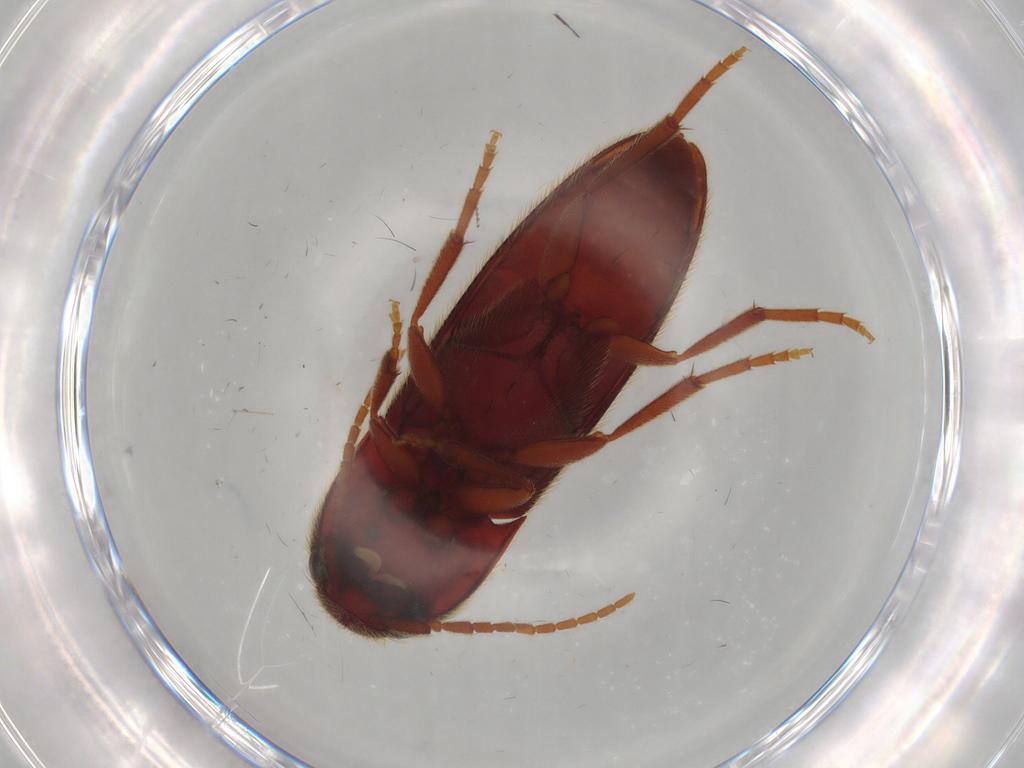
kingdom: Animalia
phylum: Arthropoda
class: Insecta
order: Coleoptera
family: Eucnemidae
